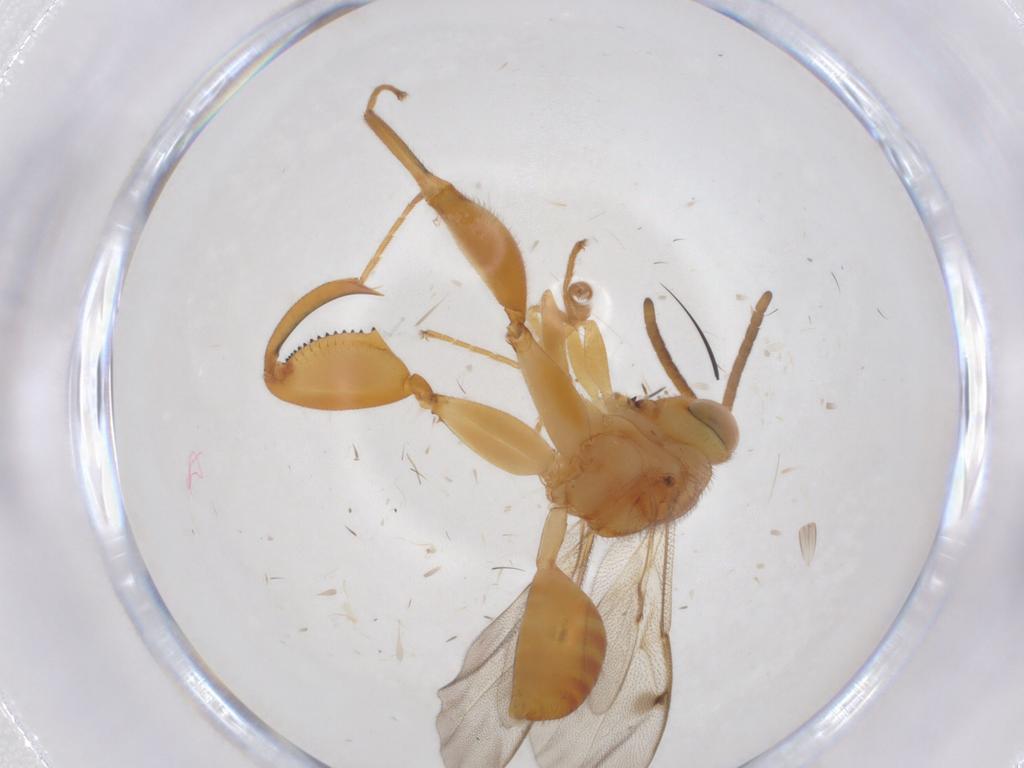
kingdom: Animalia
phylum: Arthropoda
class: Insecta
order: Hymenoptera
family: Chalcididae
